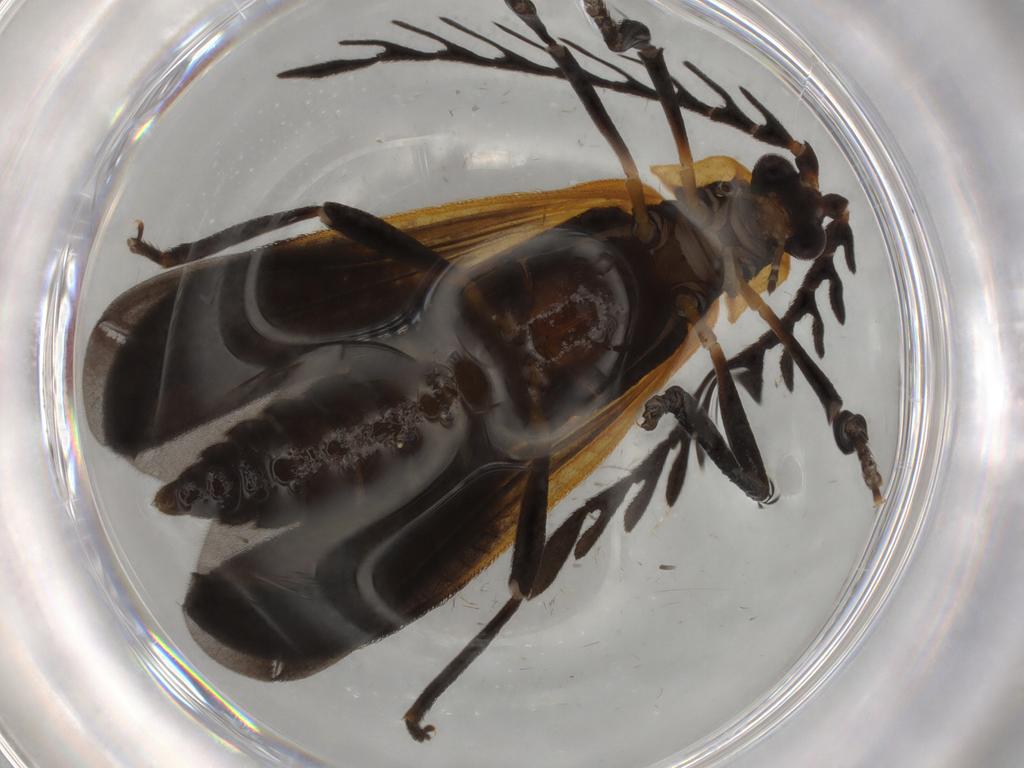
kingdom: Animalia
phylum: Arthropoda
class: Insecta
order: Coleoptera
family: Lycidae
